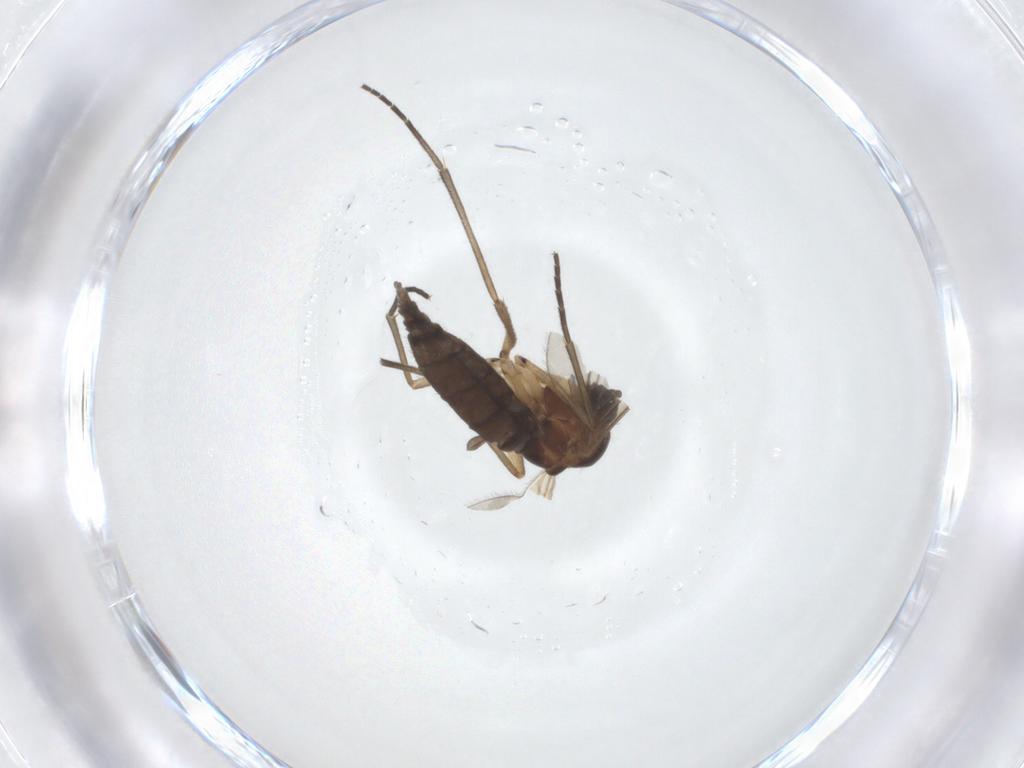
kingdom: Animalia
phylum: Arthropoda
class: Insecta
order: Diptera
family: Sciaridae
